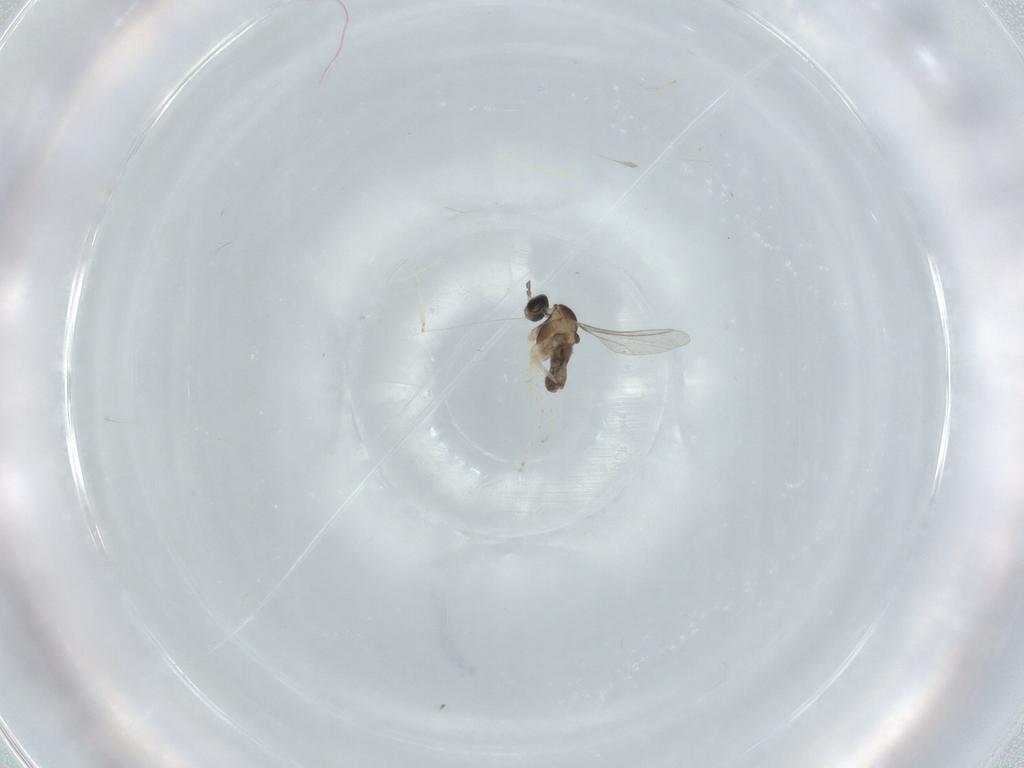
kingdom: Animalia
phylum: Arthropoda
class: Insecta
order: Diptera
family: Cecidomyiidae
